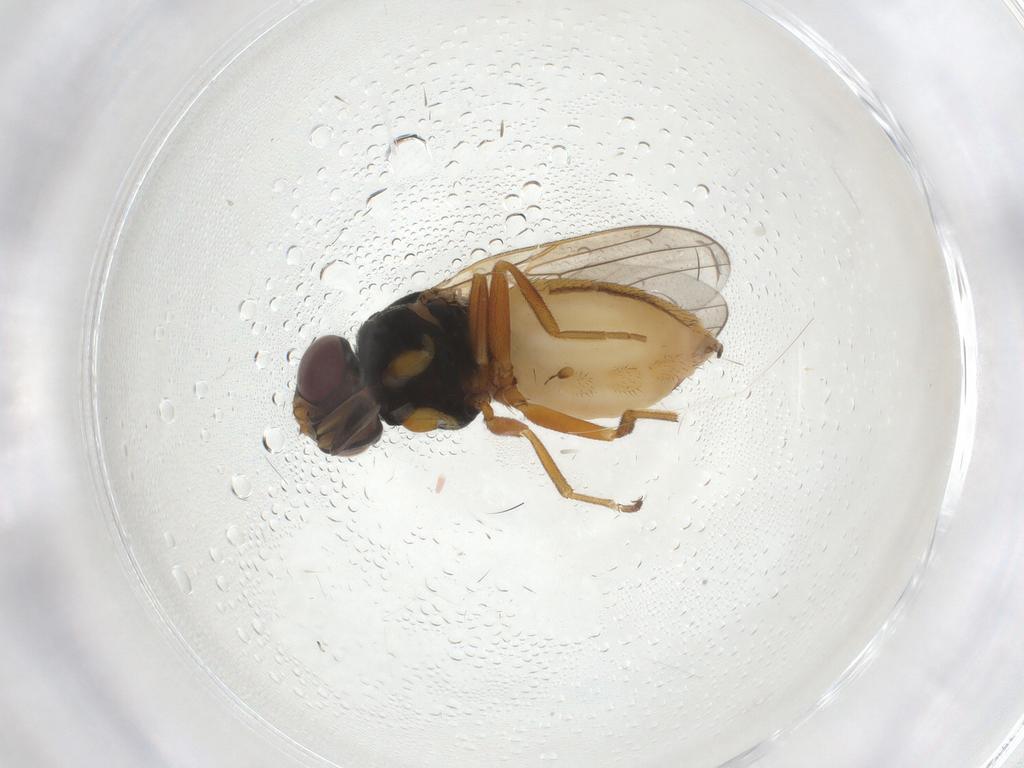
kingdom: Animalia
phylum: Arthropoda
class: Insecta
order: Diptera
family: Chloropidae
